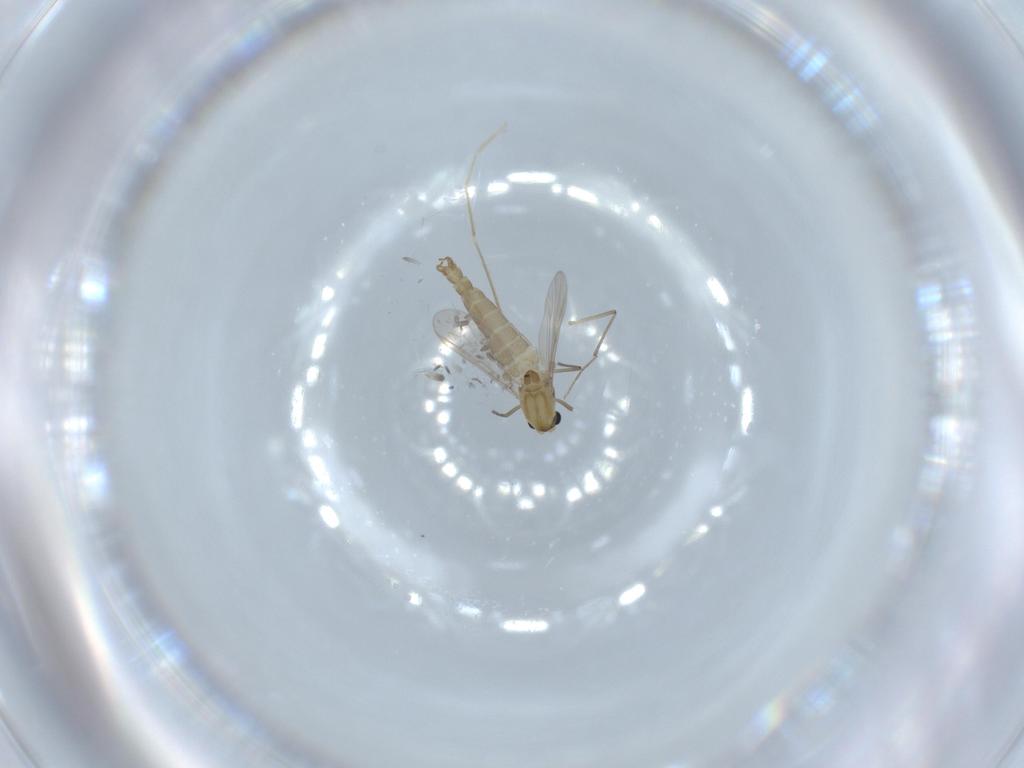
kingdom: Animalia
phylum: Arthropoda
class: Insecta
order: Diptera
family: Chironomidae
